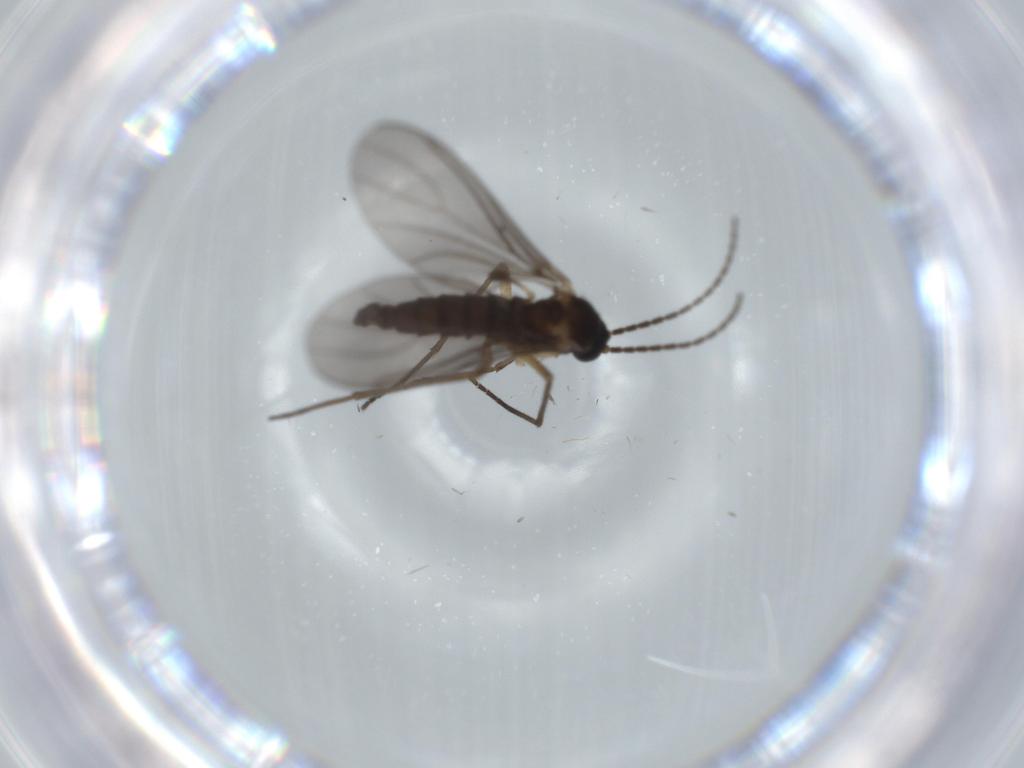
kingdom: Animalia
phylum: Arthropoda
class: Insecta
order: Diptera
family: Sciaridae
